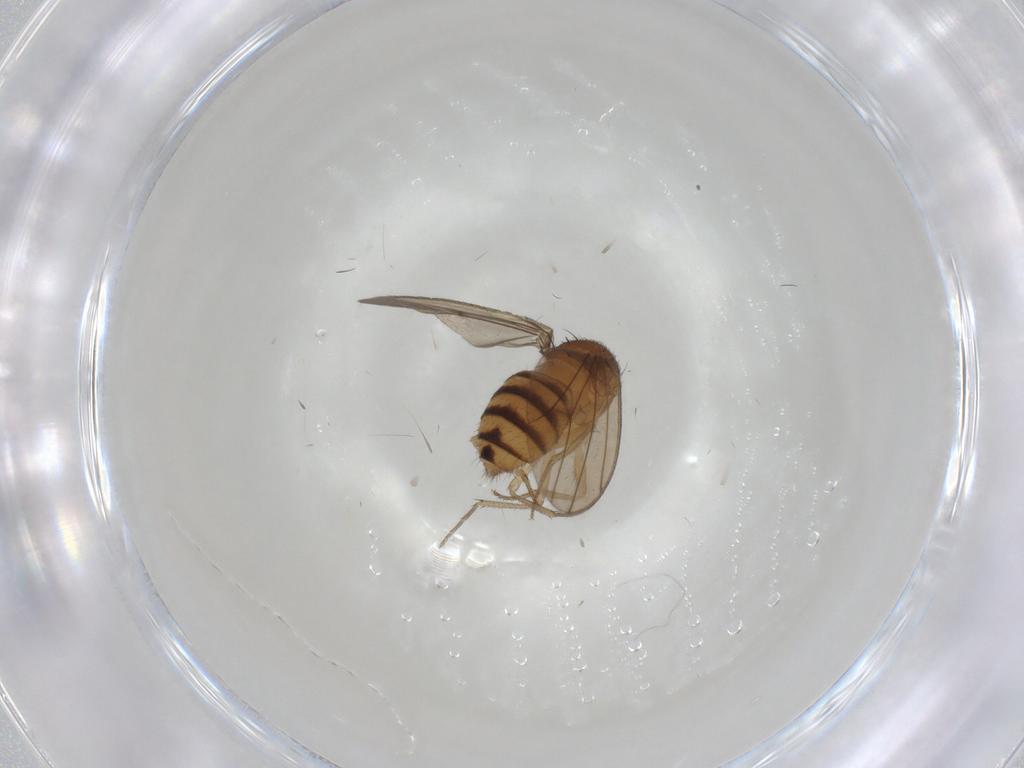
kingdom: Animalia
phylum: Arthropoda
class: Insecta
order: Diptera
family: Drosophilidae
